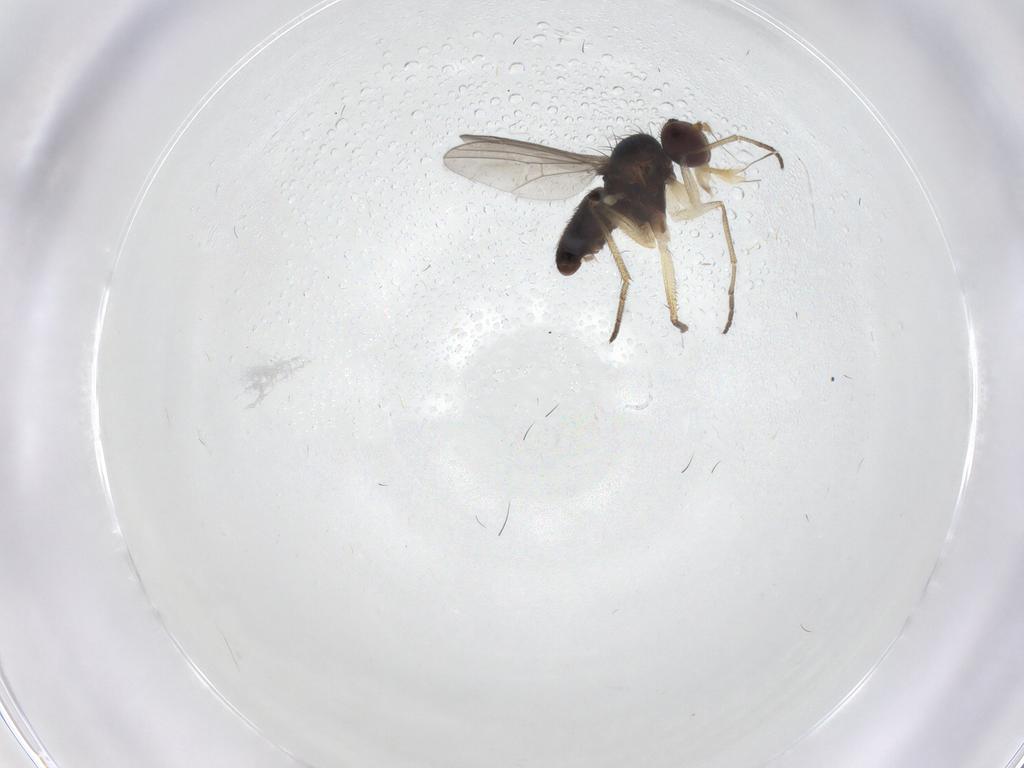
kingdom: Animalia
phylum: Arthropoda
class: Insecta
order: Diptera
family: Dolichopodidae
